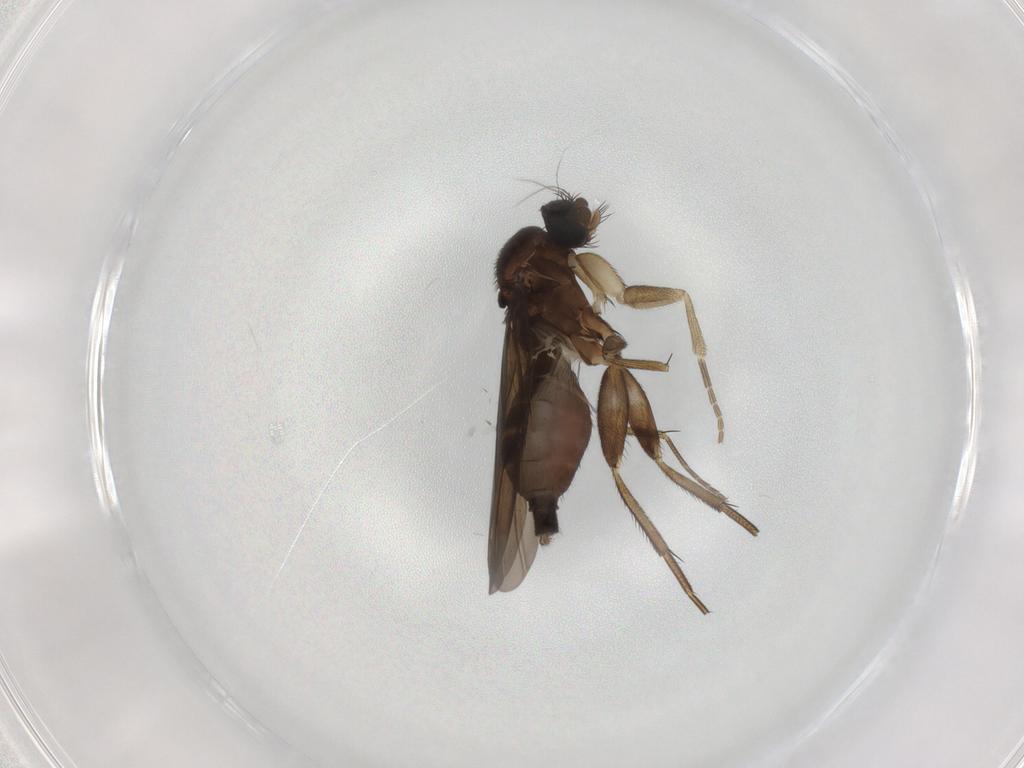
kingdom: Animalia
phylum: Arthropoda
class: Insecta
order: Diptera
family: Phoridae
